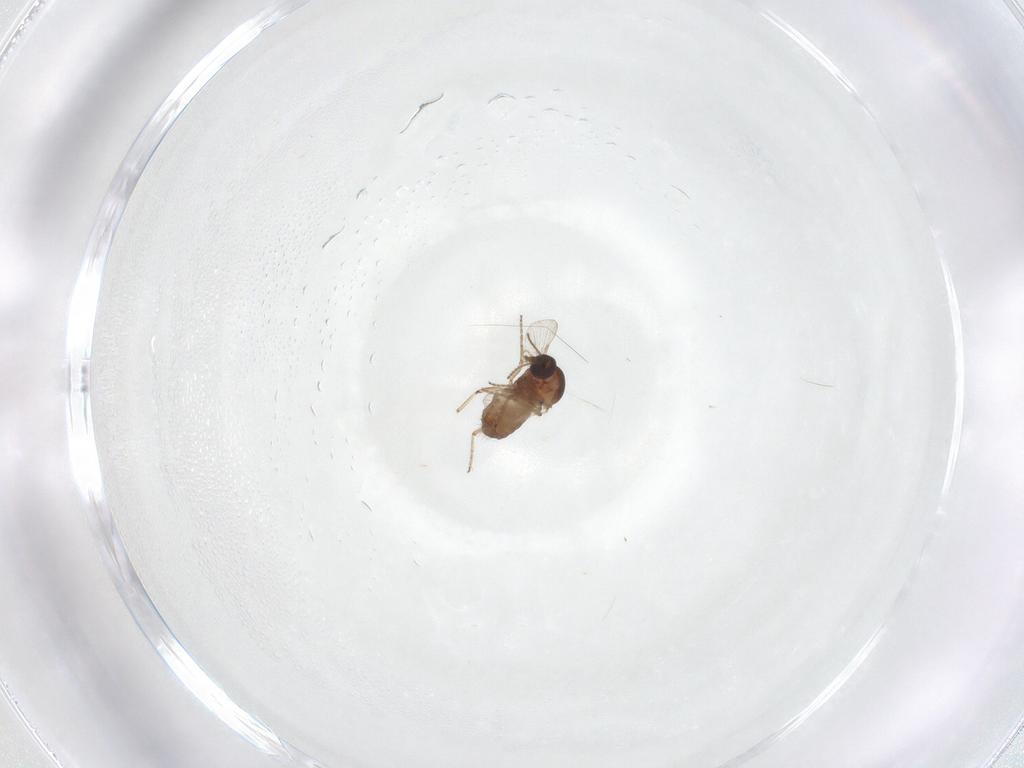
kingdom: Animalia
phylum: Arthropoda
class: Insecta
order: Diptera
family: Ceratopogonidae
